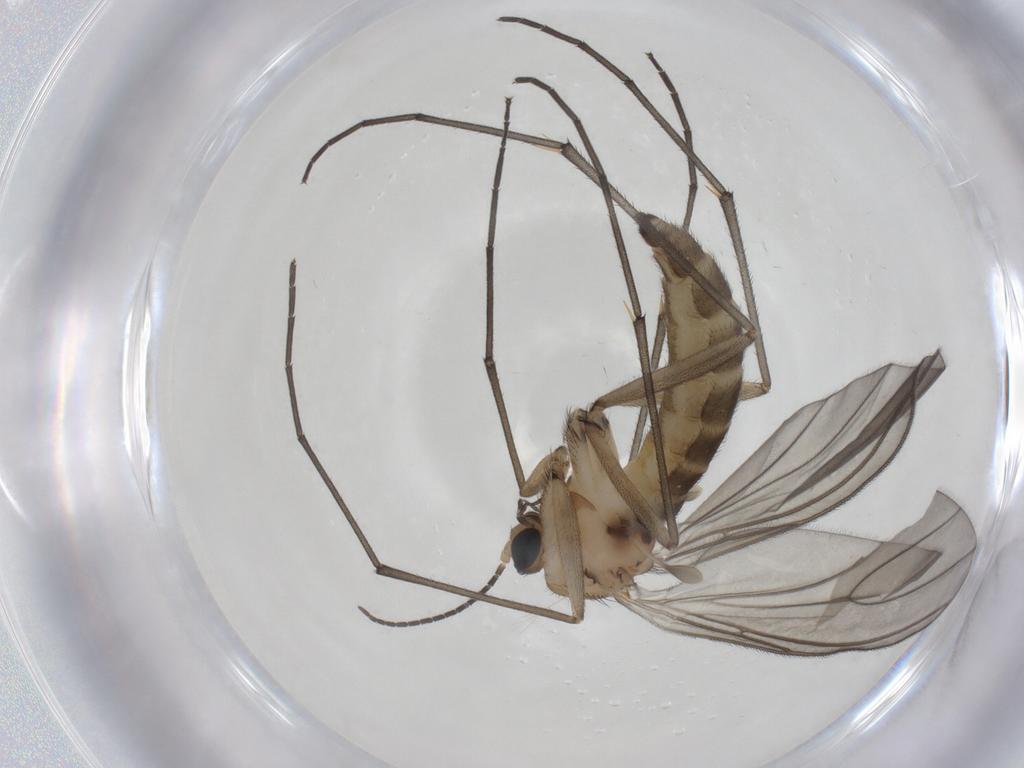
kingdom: Animalia
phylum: Arthropoda
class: Insecta
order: Diptera
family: Sciaridae
